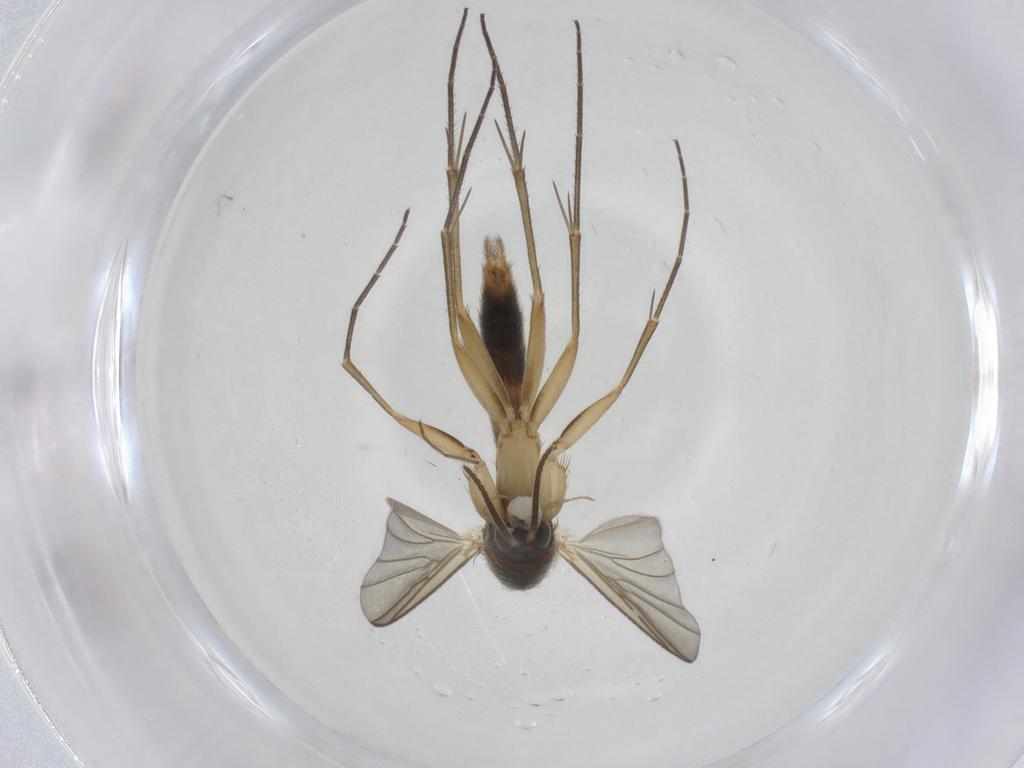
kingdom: Animalia
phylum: Arthropoda
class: Insecta
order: Diptera
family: Mycetophilidae
